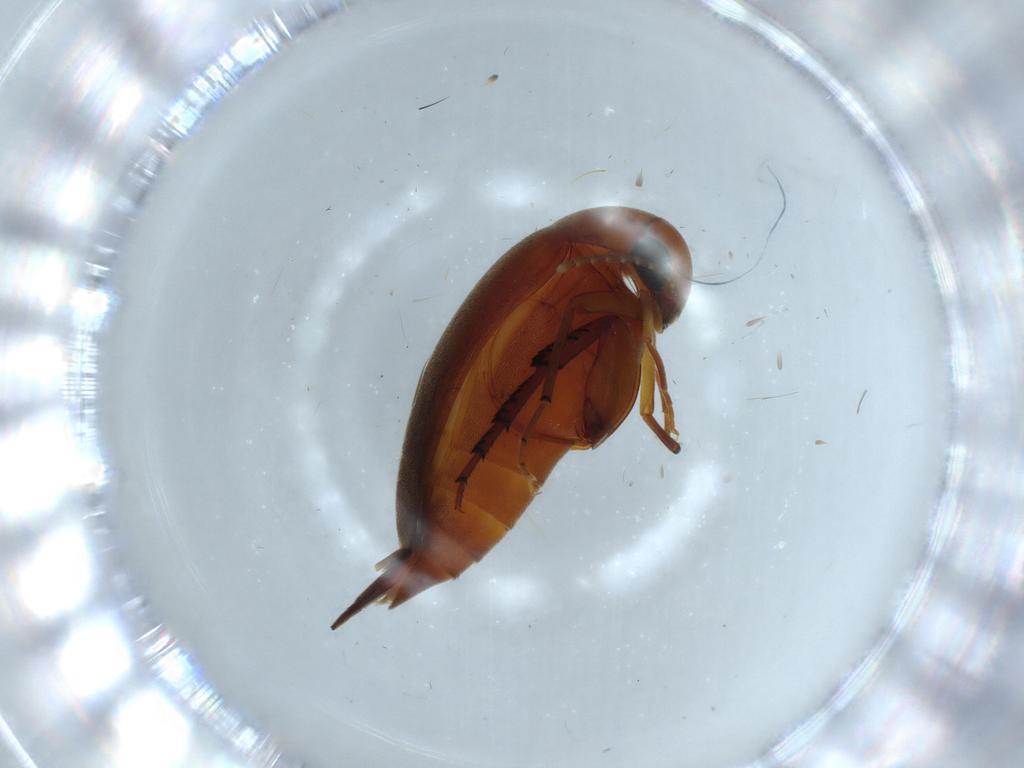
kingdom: Animalia
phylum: Arthropoda
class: Insecta
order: Coleoptera
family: Mordellidae
